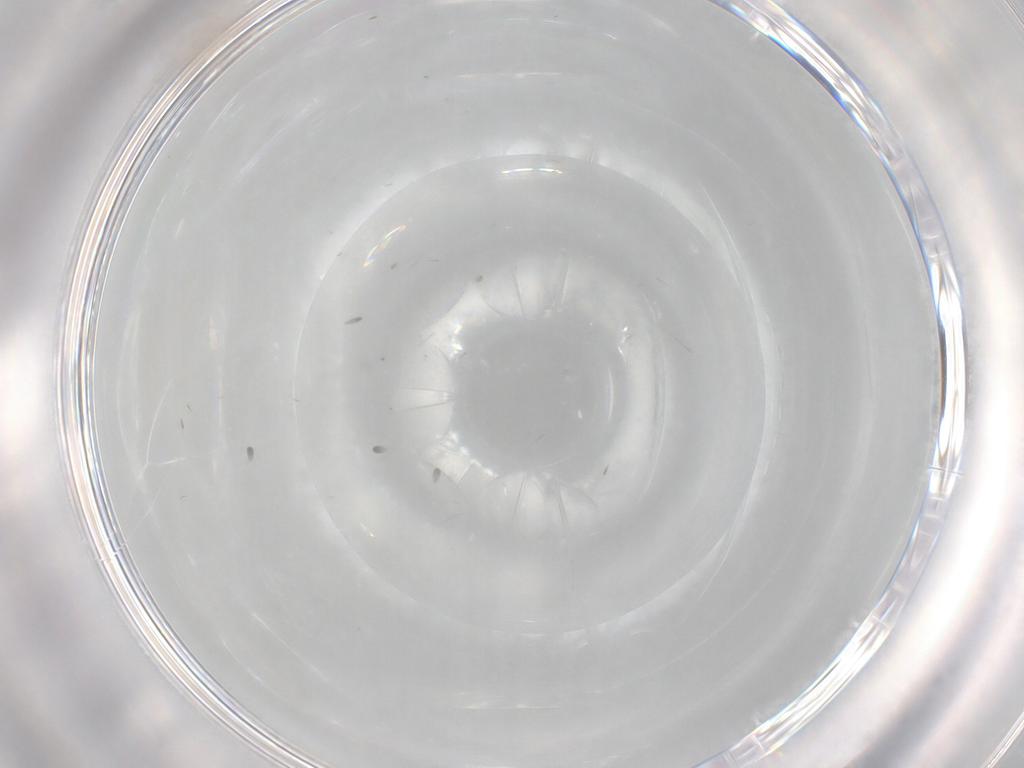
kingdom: Animalia
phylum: Arthropoda
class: Insecta
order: Diptera
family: Cecidomyiidae
